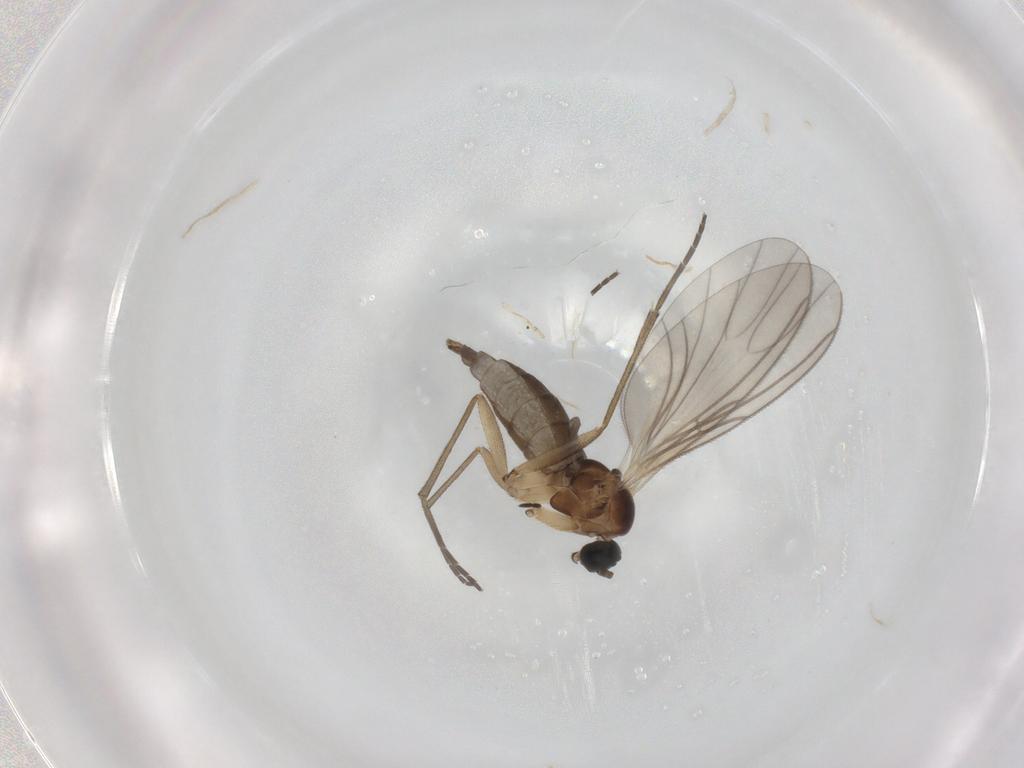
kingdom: Animalia
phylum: Arthropoda
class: Insecta
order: Diptera
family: Sciaridae
